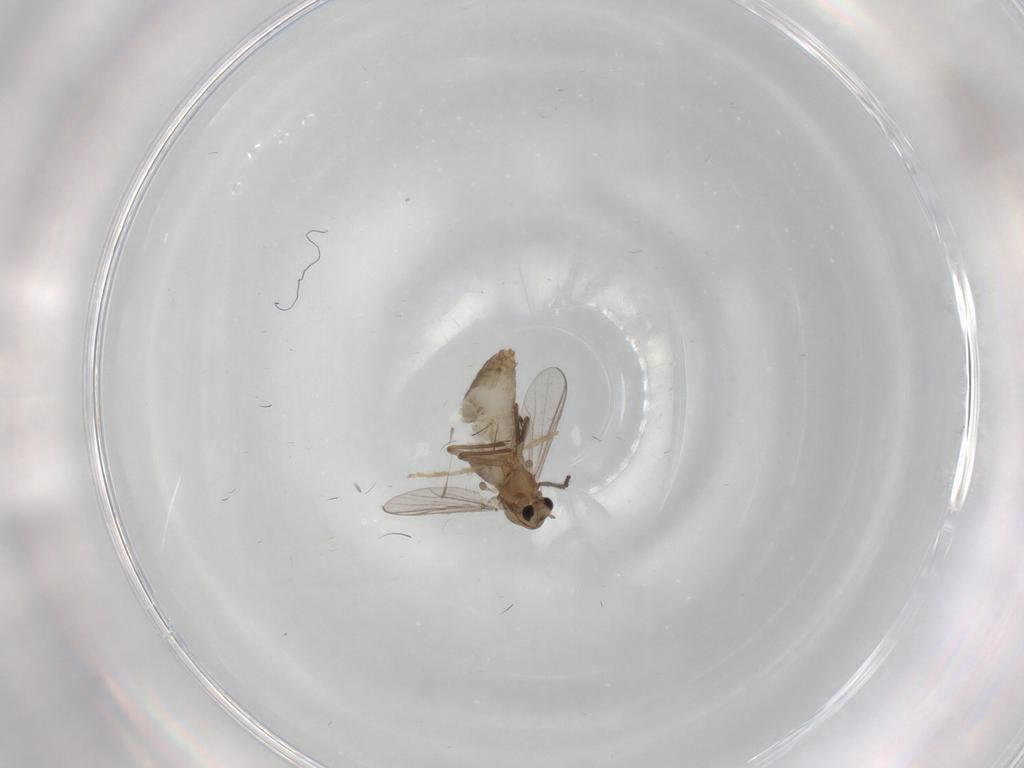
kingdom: Animalia
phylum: Arthropoda
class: Insecta
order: Diptera
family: Chironomidae
